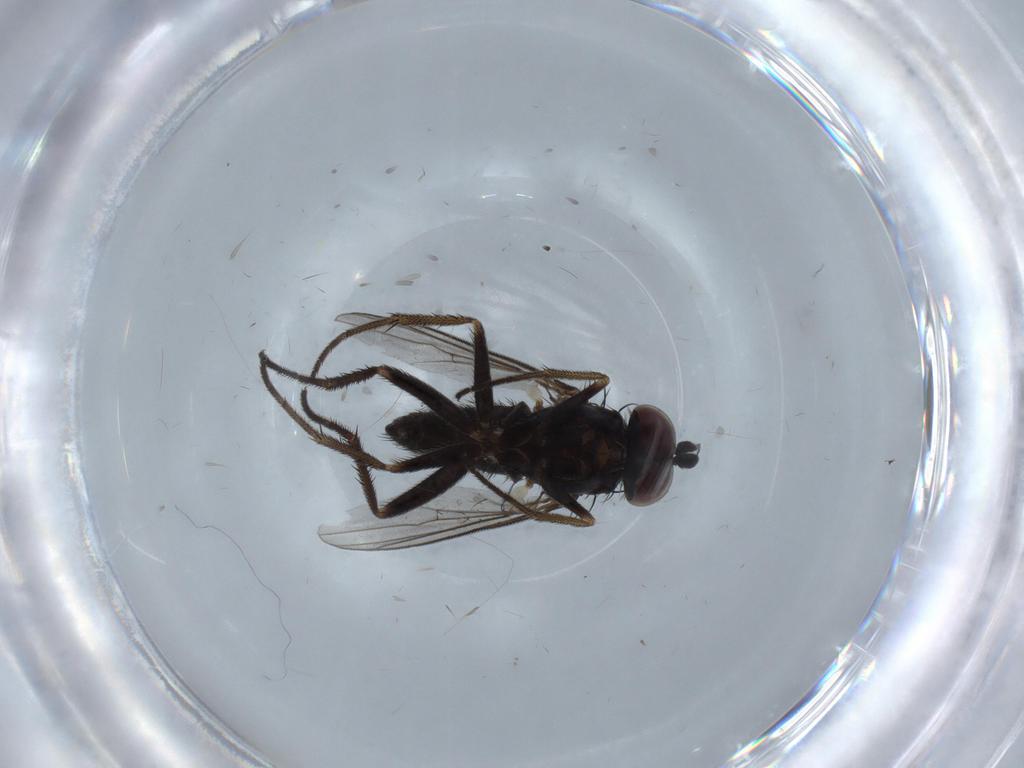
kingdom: Animalia
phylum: Arthropoda
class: Insecta
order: Diptera
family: Dolichopodidae
